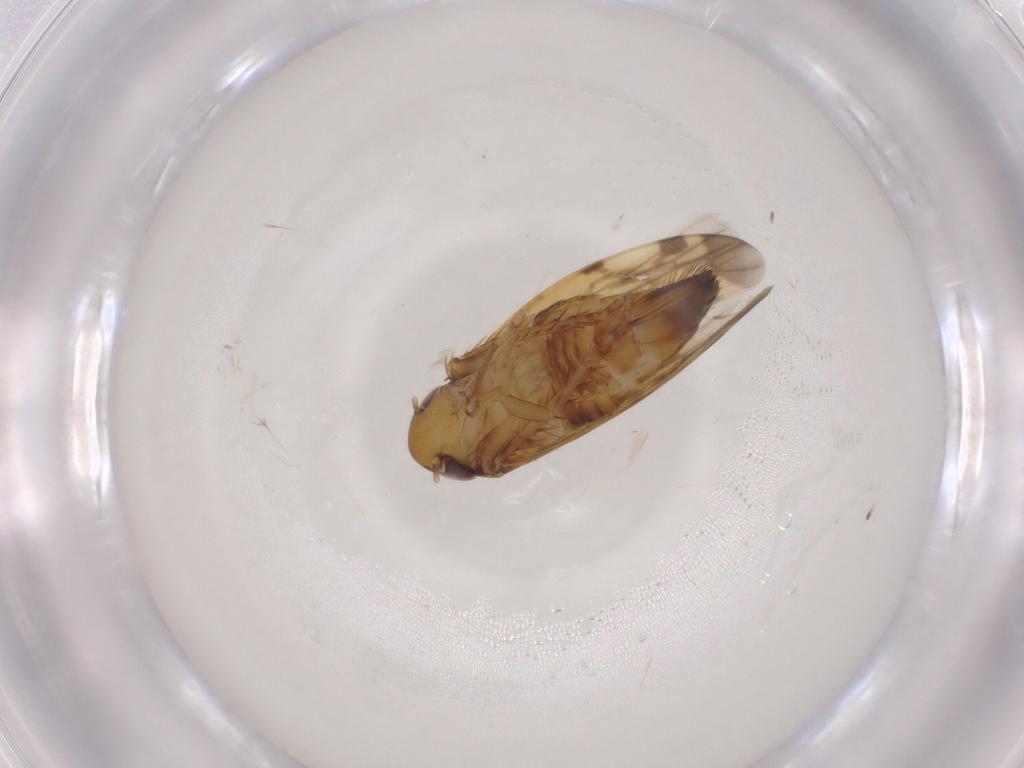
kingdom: Animalia
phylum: Arthropoda
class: Insecta
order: Hemiptera
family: Cicadellidae
